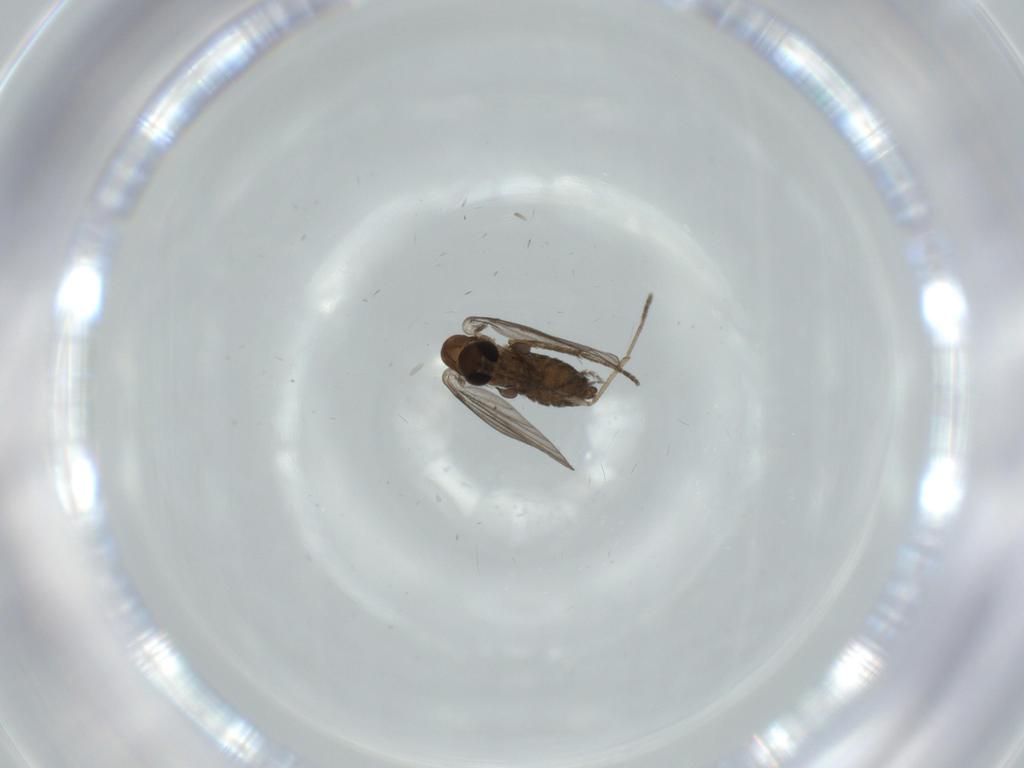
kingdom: Animalia
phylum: Arthropoda
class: Insecta
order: Diptera
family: Psychodidae
